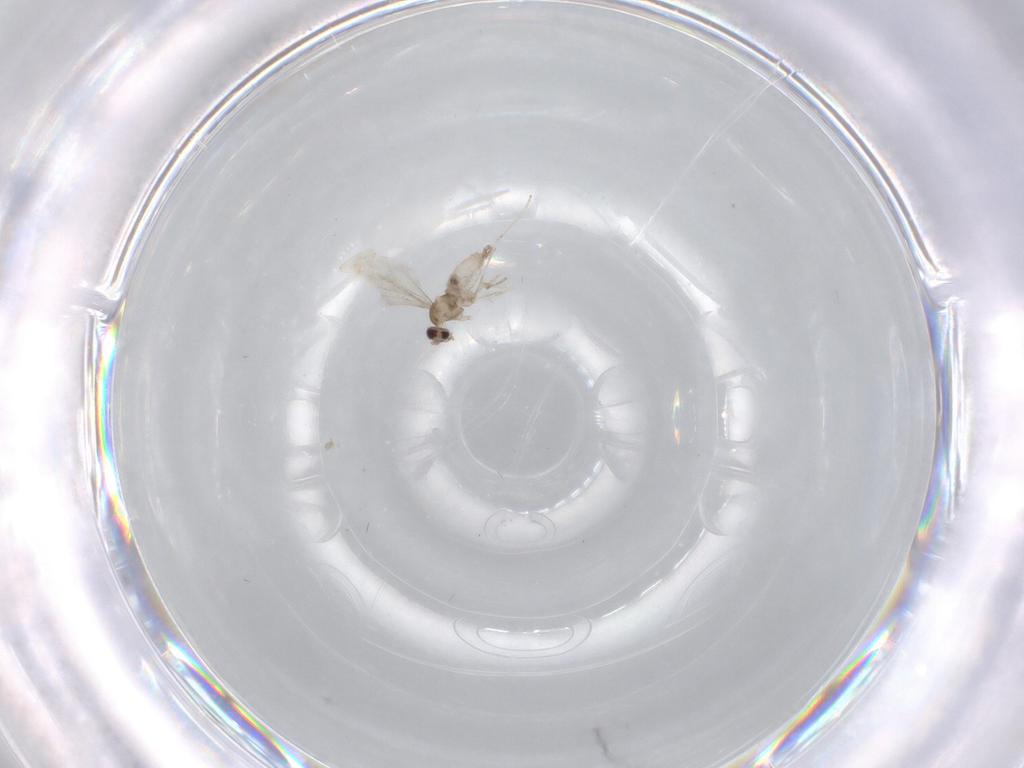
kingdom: Animalia
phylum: Arthropoda
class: Insecta
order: Diptera
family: Cecidomyiidae
